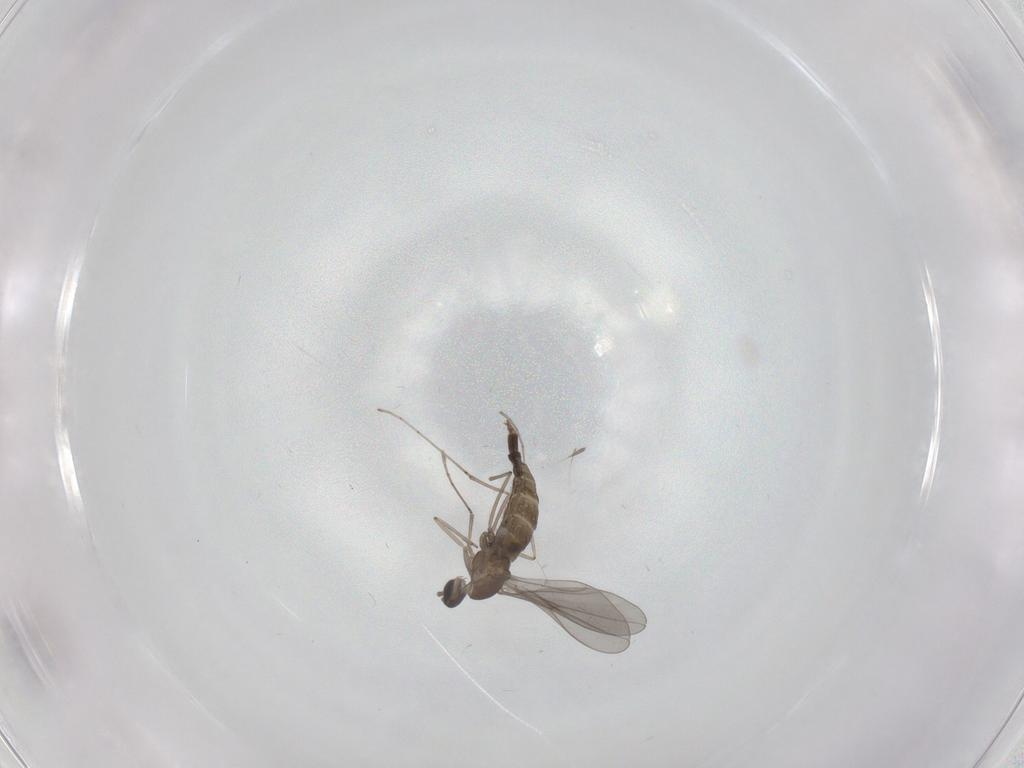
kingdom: Animalia
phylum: Arthropoda
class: Insecta
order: Diptera
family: Cecidomyiidae
